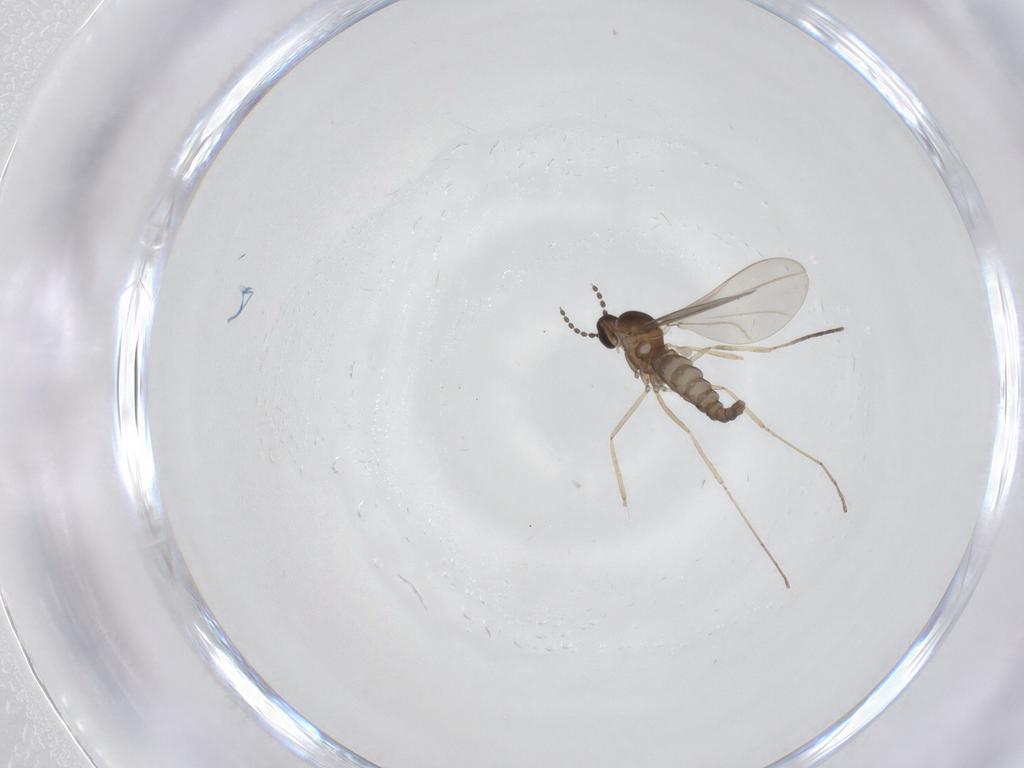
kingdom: Animalia
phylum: Arthropoda
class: Insecta
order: Diptera
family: Cecidomyiidae
